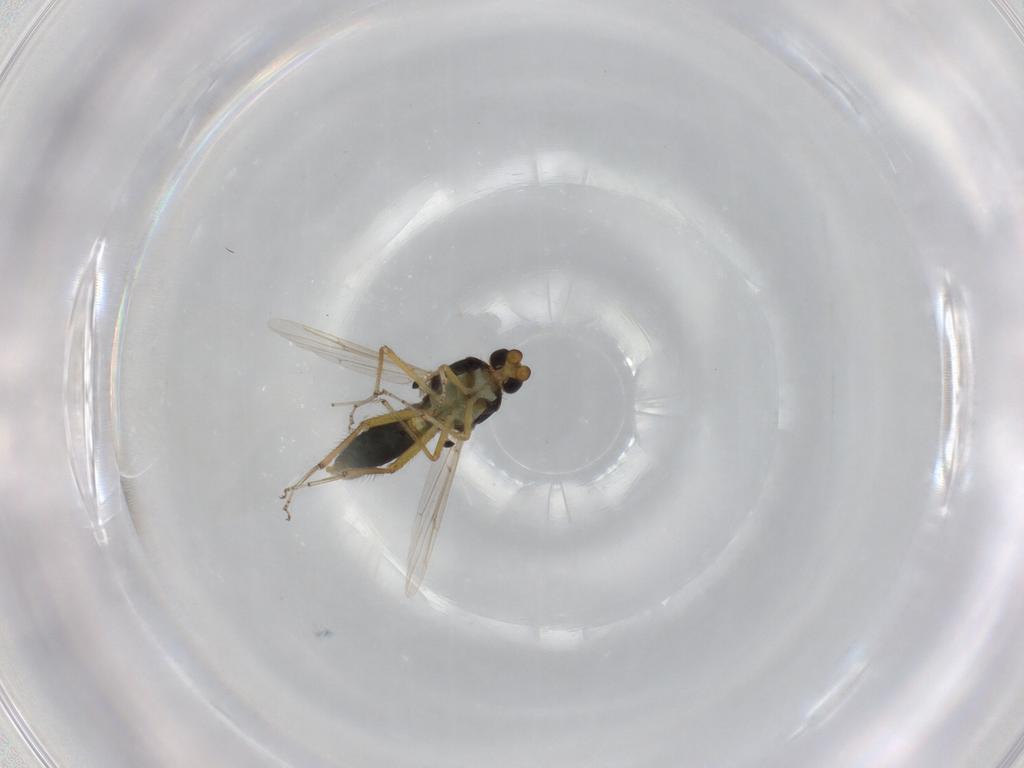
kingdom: Animalia
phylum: Arthropoda
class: Insecta
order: Diptera
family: Ceratopogonidae
